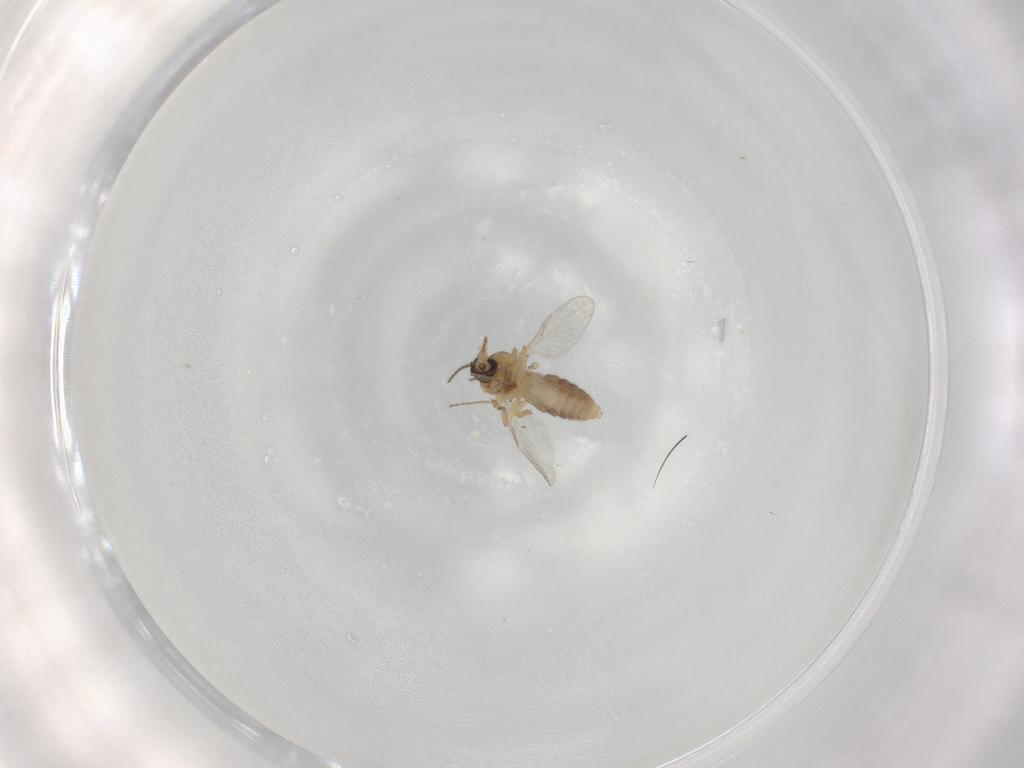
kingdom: Animalia
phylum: Arthropoda
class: Insecta
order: Diptera
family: Ceratopogonidae
